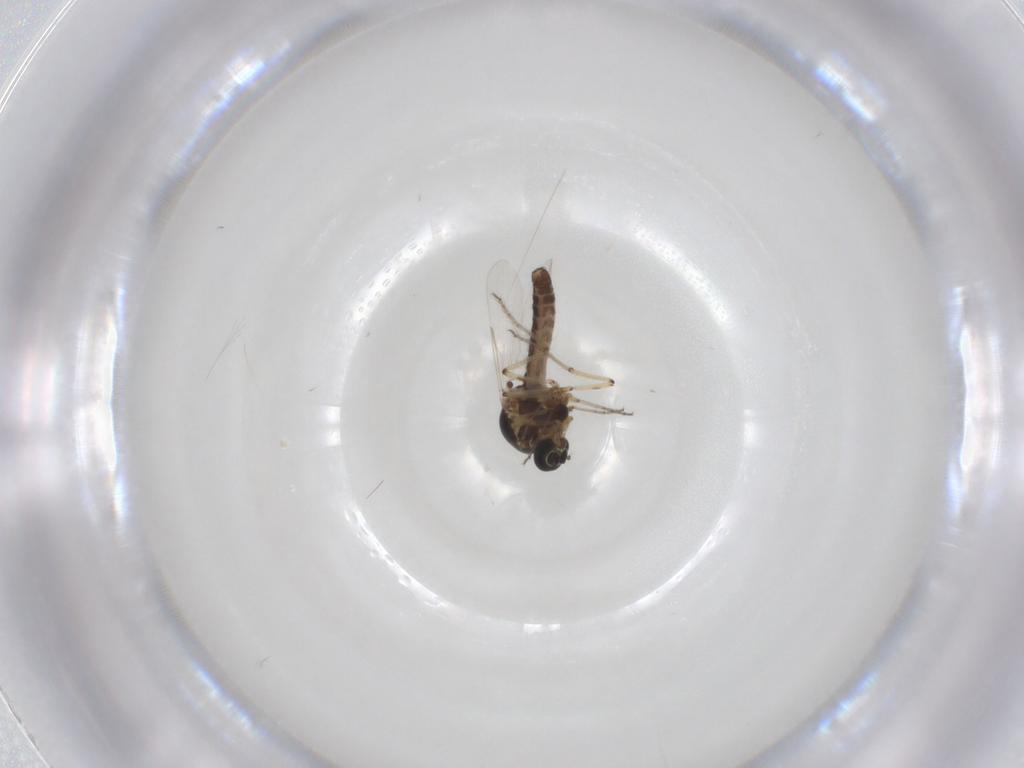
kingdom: Animalia
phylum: Arthropoda
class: Insecta
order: Diptera
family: Ceratopogonidae
